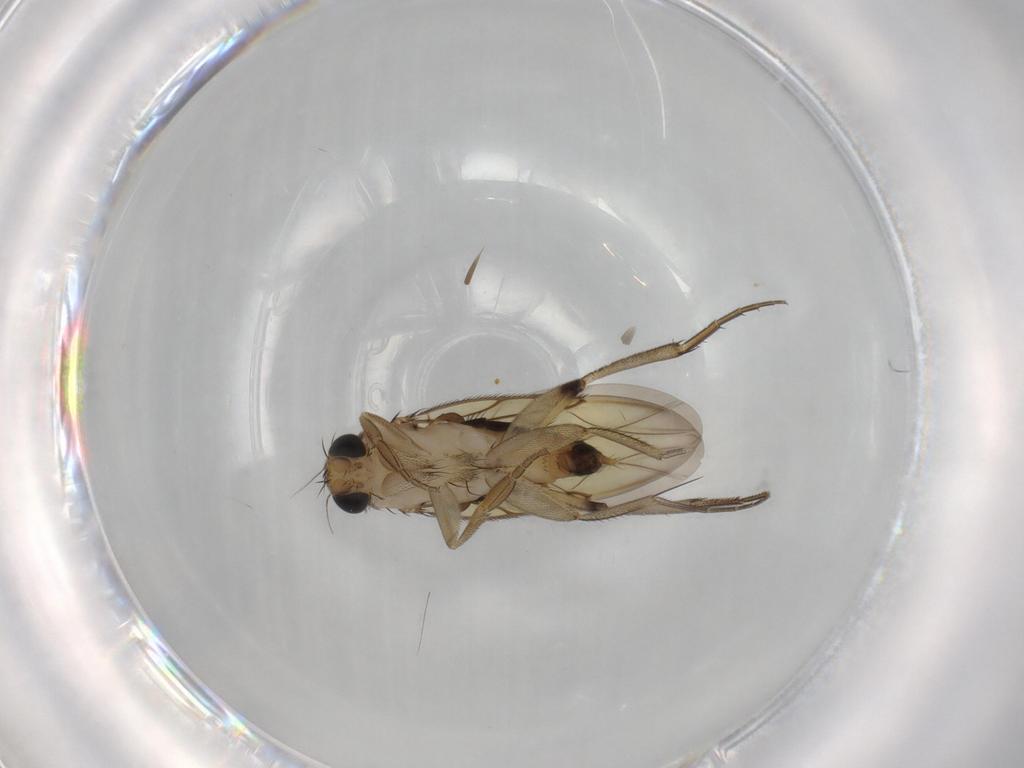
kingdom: Animalia
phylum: Arthropoda
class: Insecta
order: Diptera
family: Phoridae
